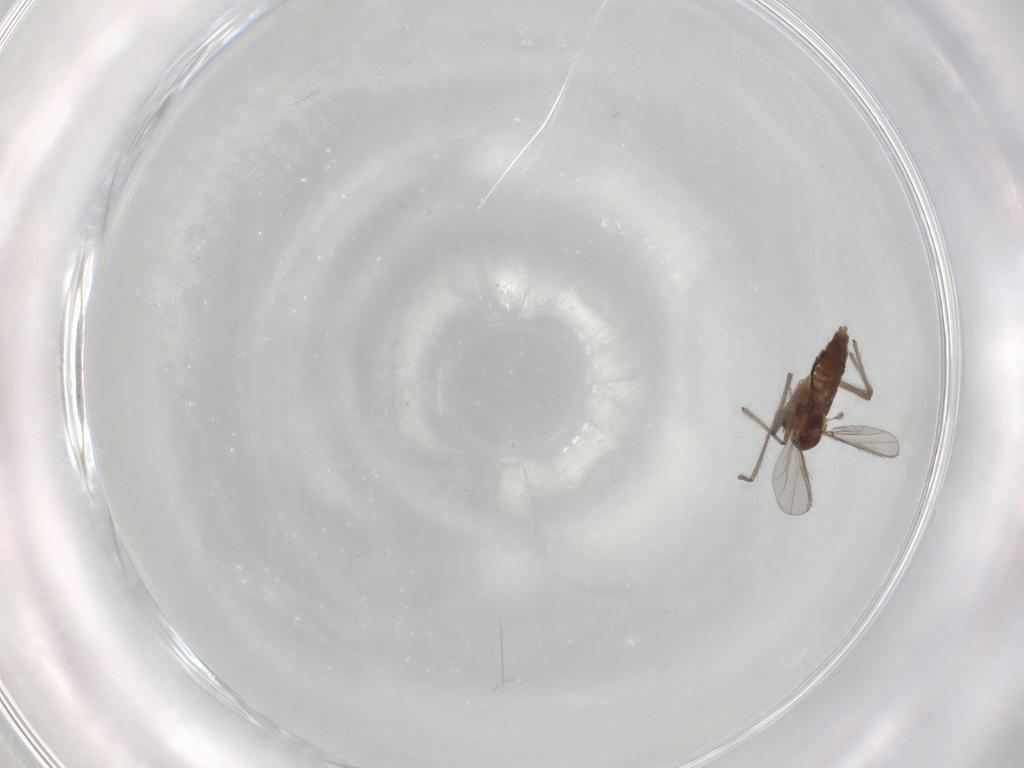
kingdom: Animalia
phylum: Arthropoda
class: Insecta
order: Diptera
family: Chironomidae
